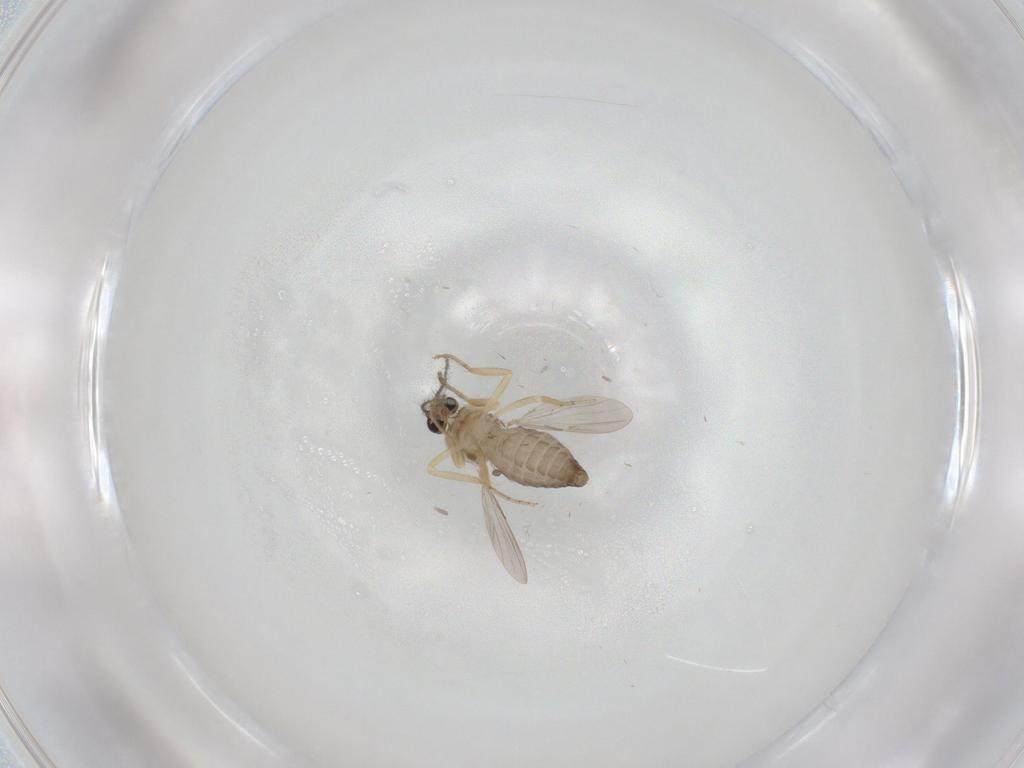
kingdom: Animalia
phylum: Arthropoda
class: Insecta
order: Diptera
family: Ceratopogonidae
